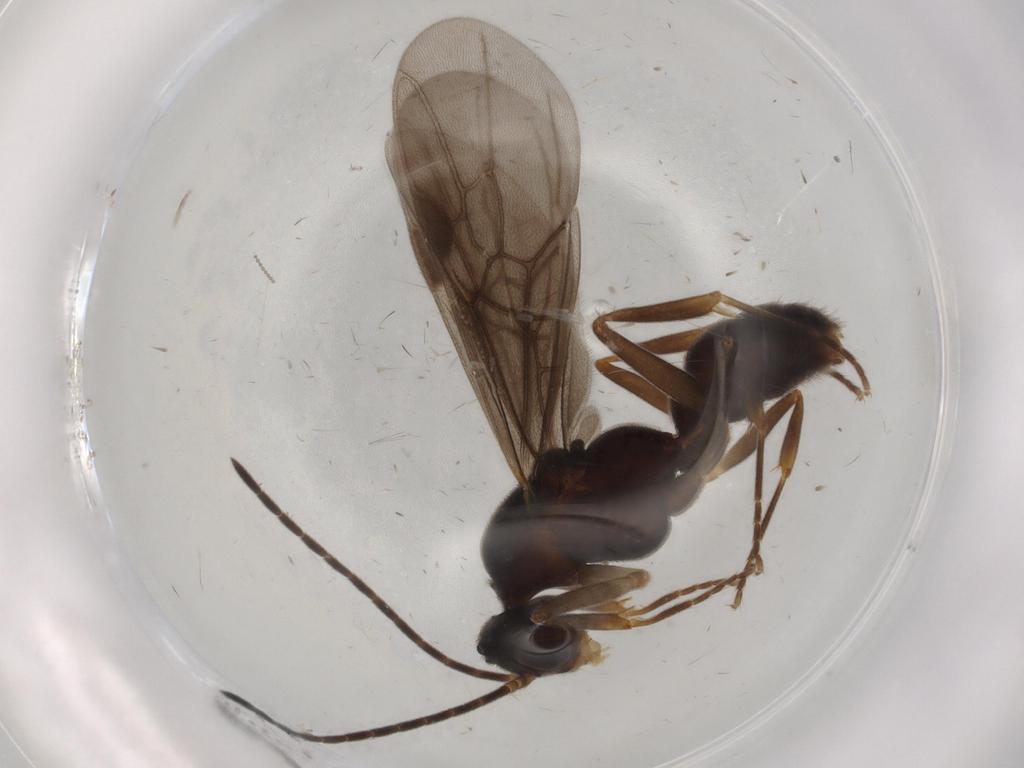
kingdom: Animalia
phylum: Arthropoda
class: Insecta
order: Hymenoptera
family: Formicidae
